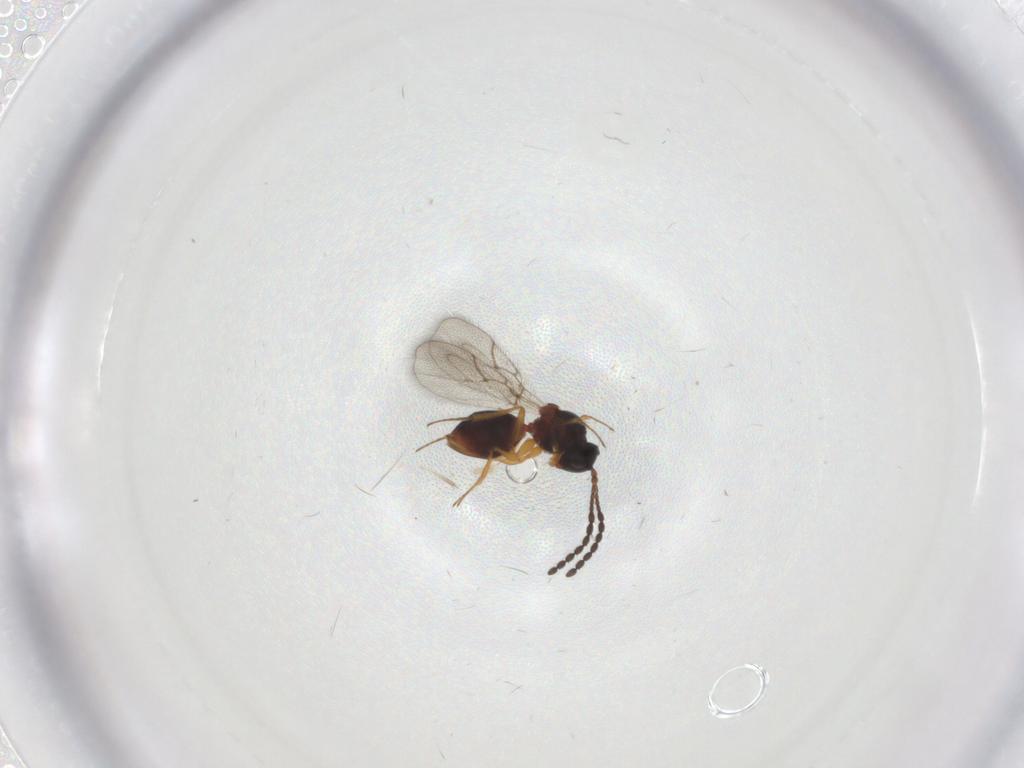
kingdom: Animalia
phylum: Arthropoda
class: Insecta
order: Hymenoptera
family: Figitidae
